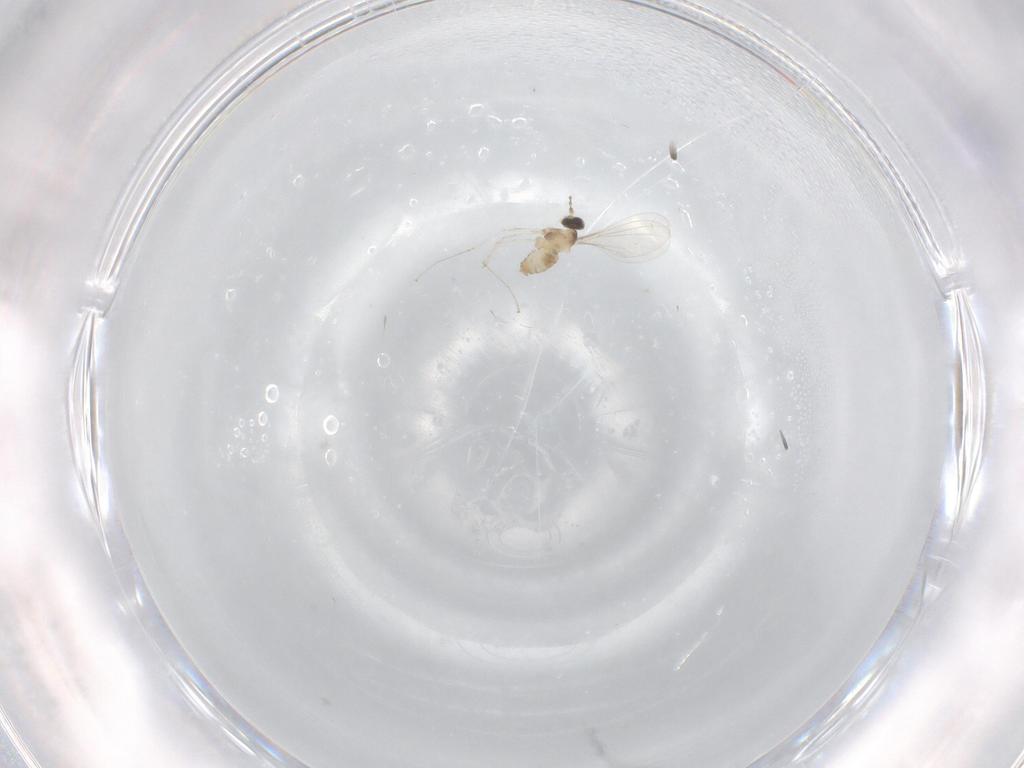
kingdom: Animalia
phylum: Arthropoda
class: Insecta
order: Diptera
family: Cecidomyiidae
